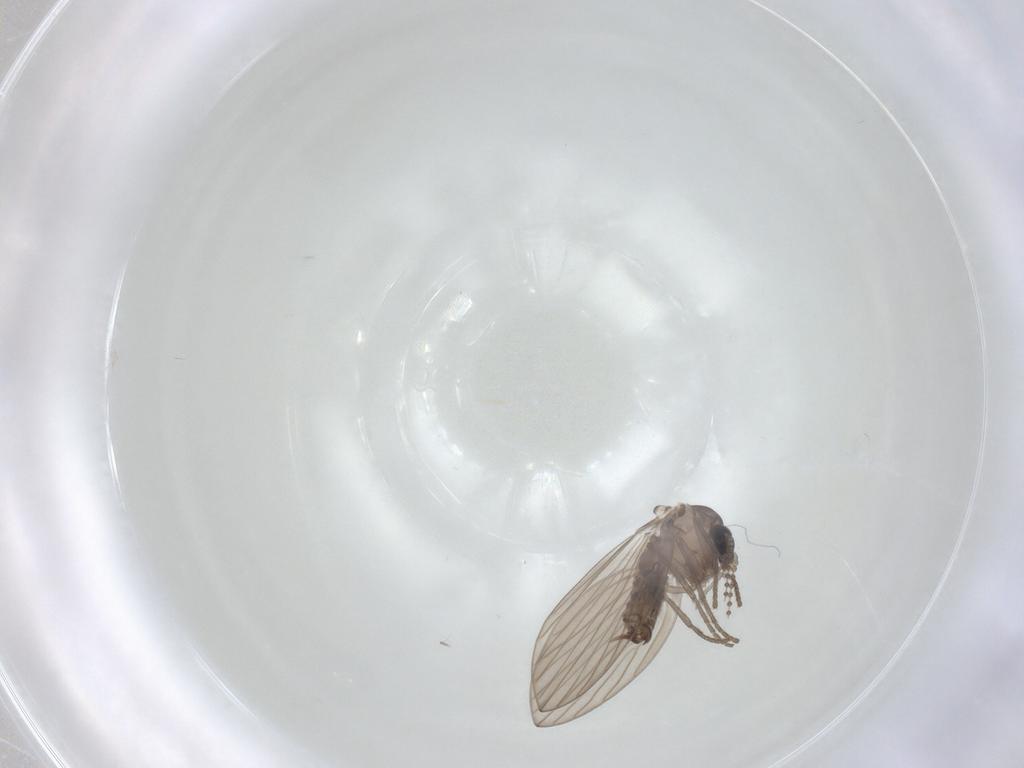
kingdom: Animalia
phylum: Arthropoda
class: Insecta
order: Diptera
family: Psychodidae
